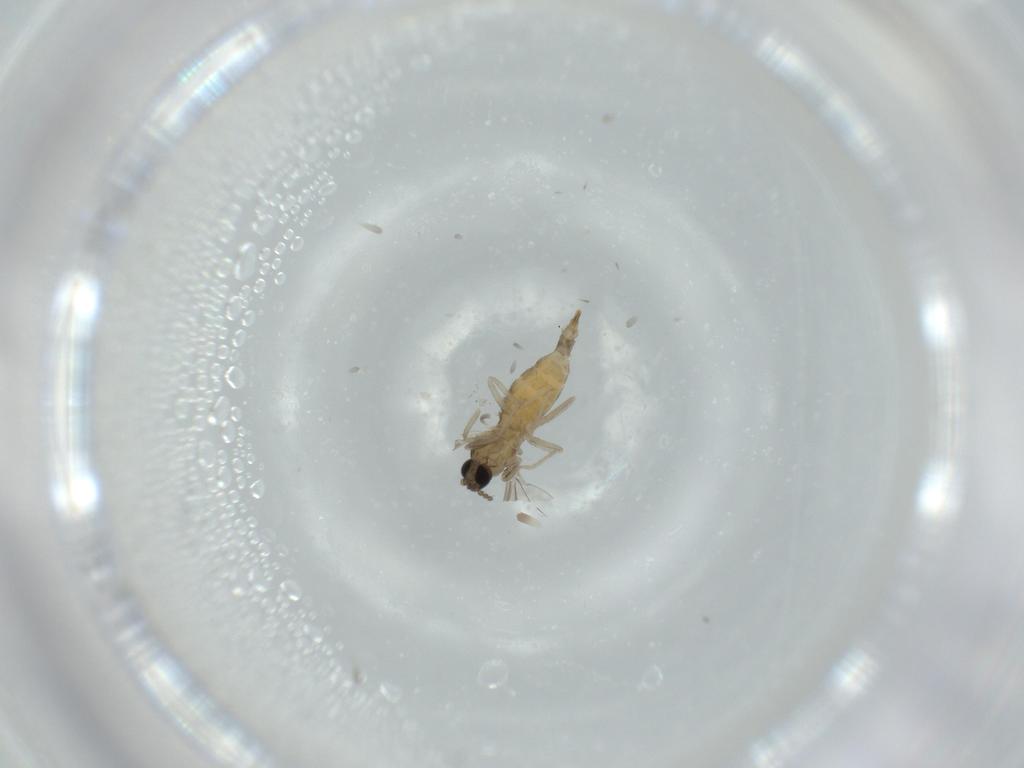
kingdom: Animalia
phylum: Arthropoda
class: Insecta
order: Diptera
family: Cecidomyiidae
